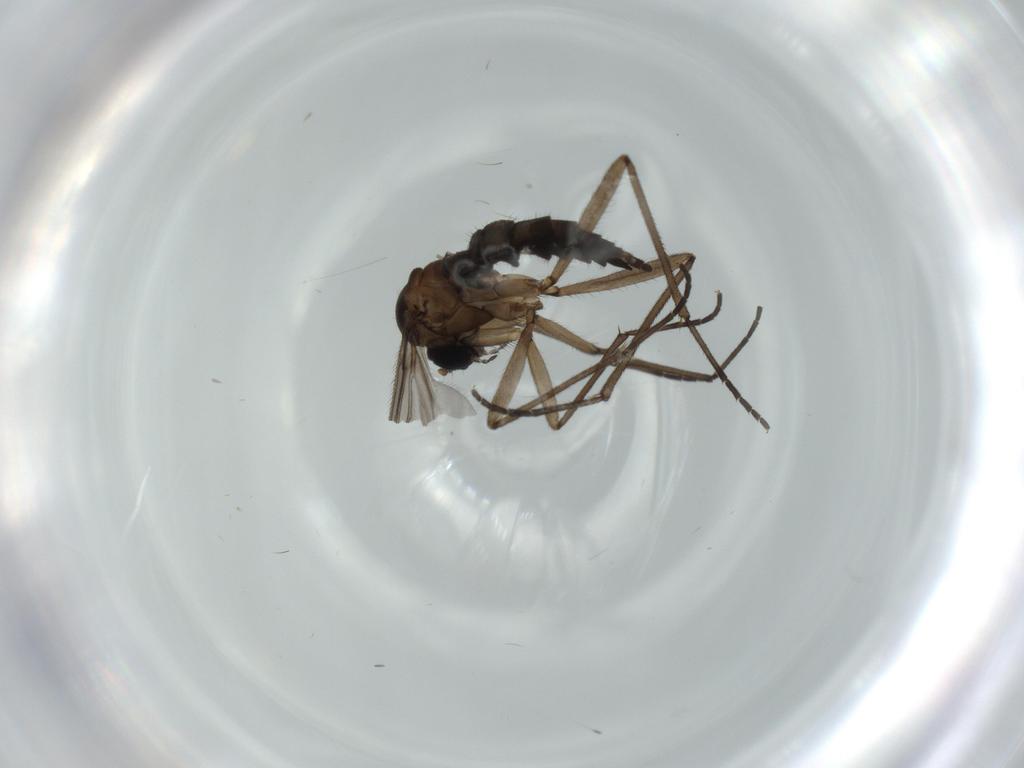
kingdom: Animalia
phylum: Arthropoda
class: Insecta
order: Diptera
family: Sciaridae
